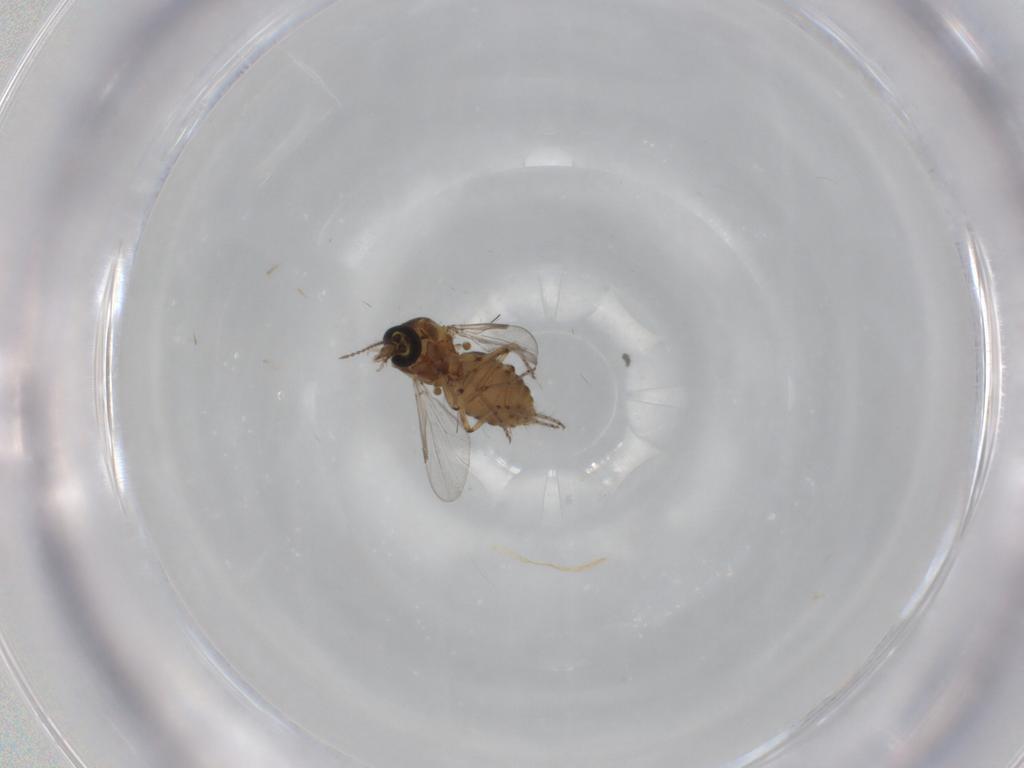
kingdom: Animalia
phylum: Arthropoda
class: Insecta
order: Diptera
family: Ceratopogonidae
